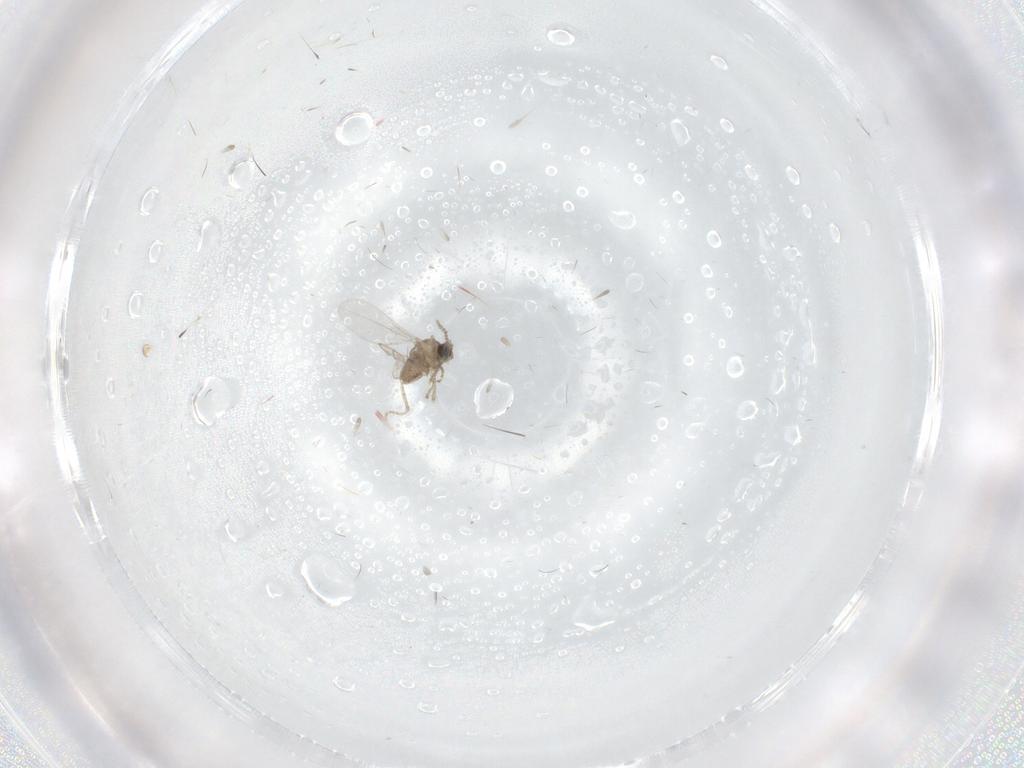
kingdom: Animalia
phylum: Arthropoda
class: Insecta
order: Diptera
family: Cecidomyiidae
